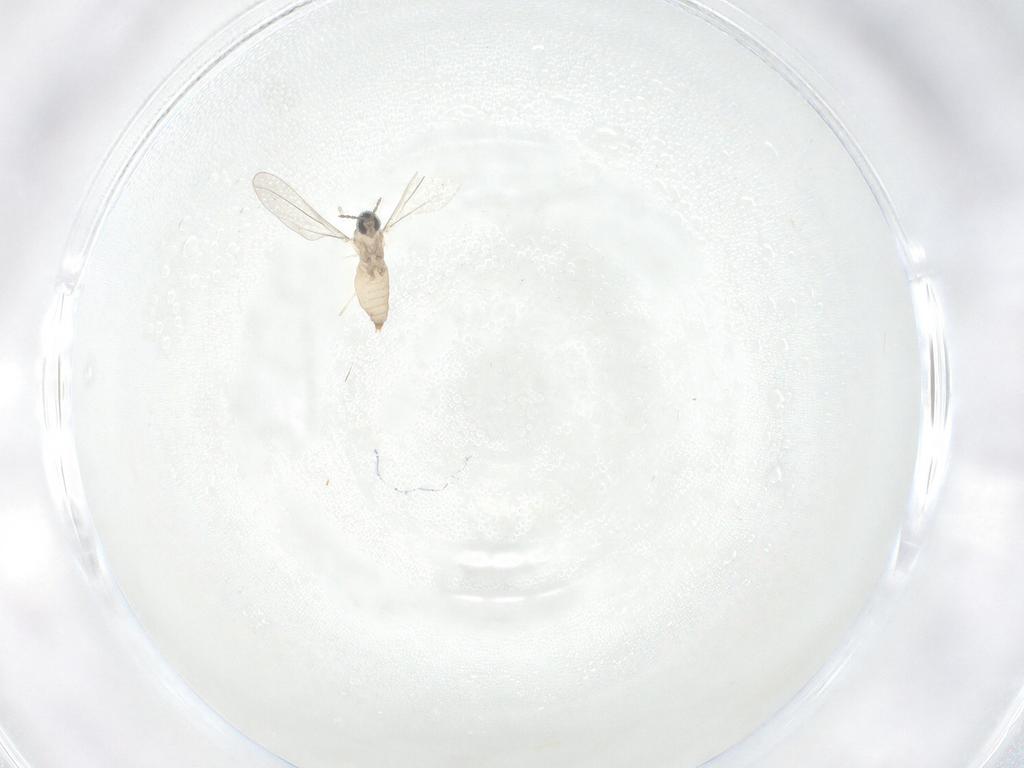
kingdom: Animalia
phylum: Arthropoda
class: Insecta
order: Diptera
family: Cecidomyiidae
